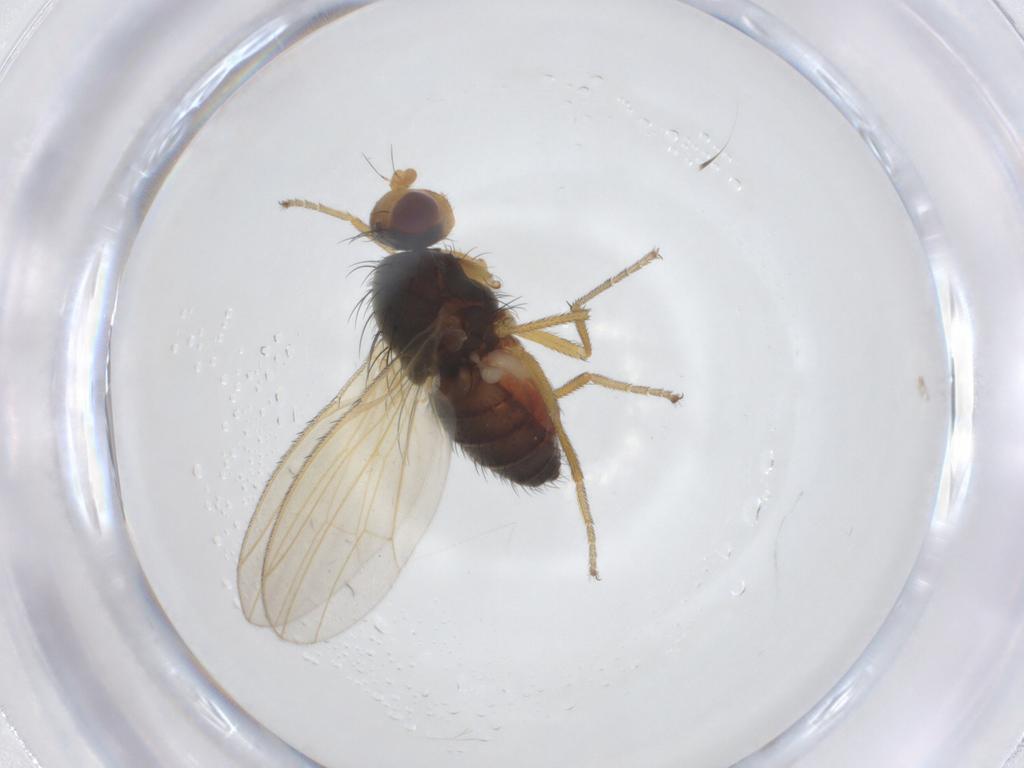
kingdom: Animalia
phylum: Arthropoda
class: Insecta
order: Diptera
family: Heleomyzidae
